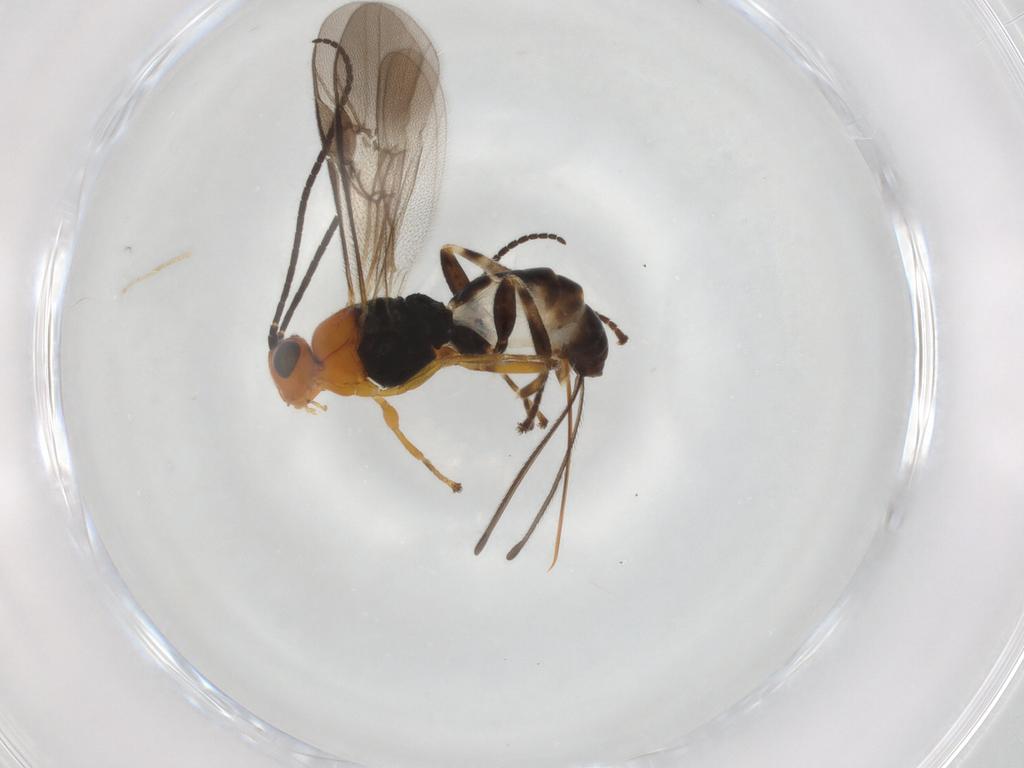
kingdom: Animalia
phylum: Arthropoda
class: Insecta
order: Hymenoptera
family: Braconidae
